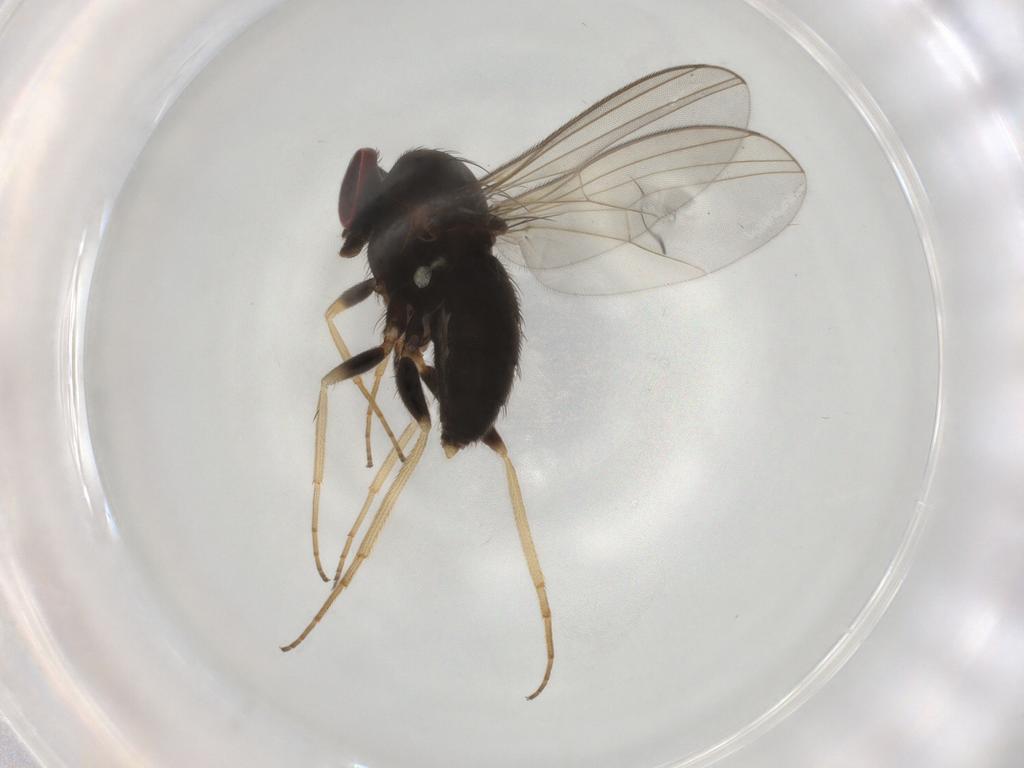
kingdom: Animalia
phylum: Arthropoda
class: Insecta
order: Diptera
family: Dolichopodidae
